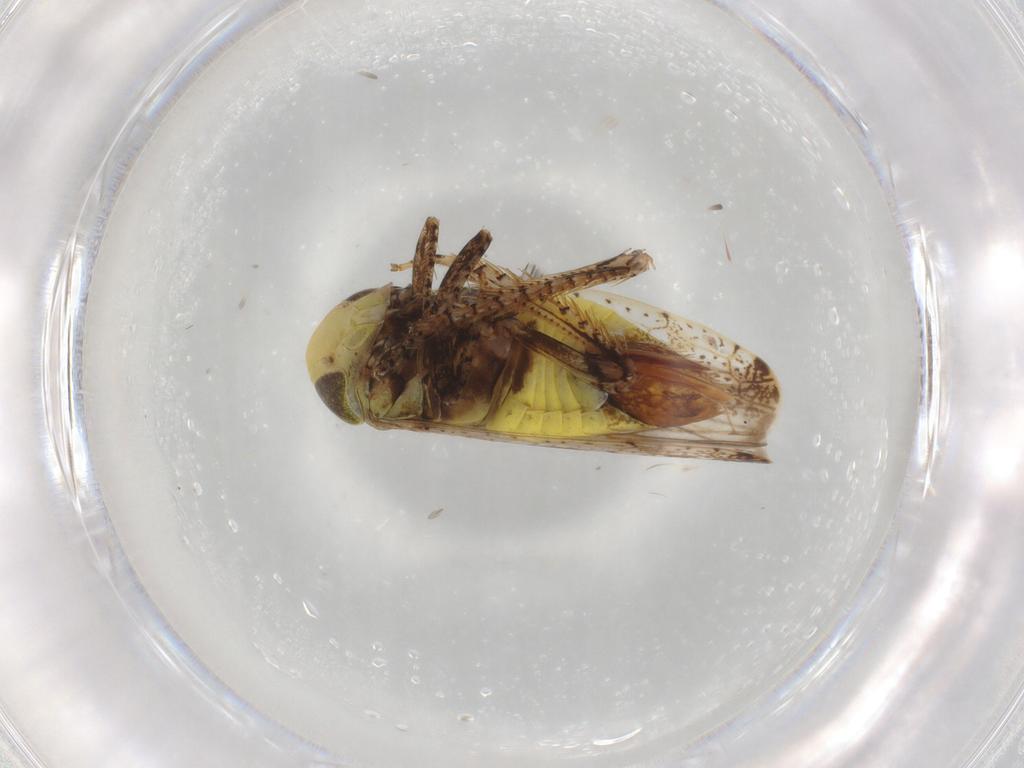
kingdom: Animalia
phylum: Arthropoda
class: Insecta
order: Hemiptera
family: Cicadellidae
